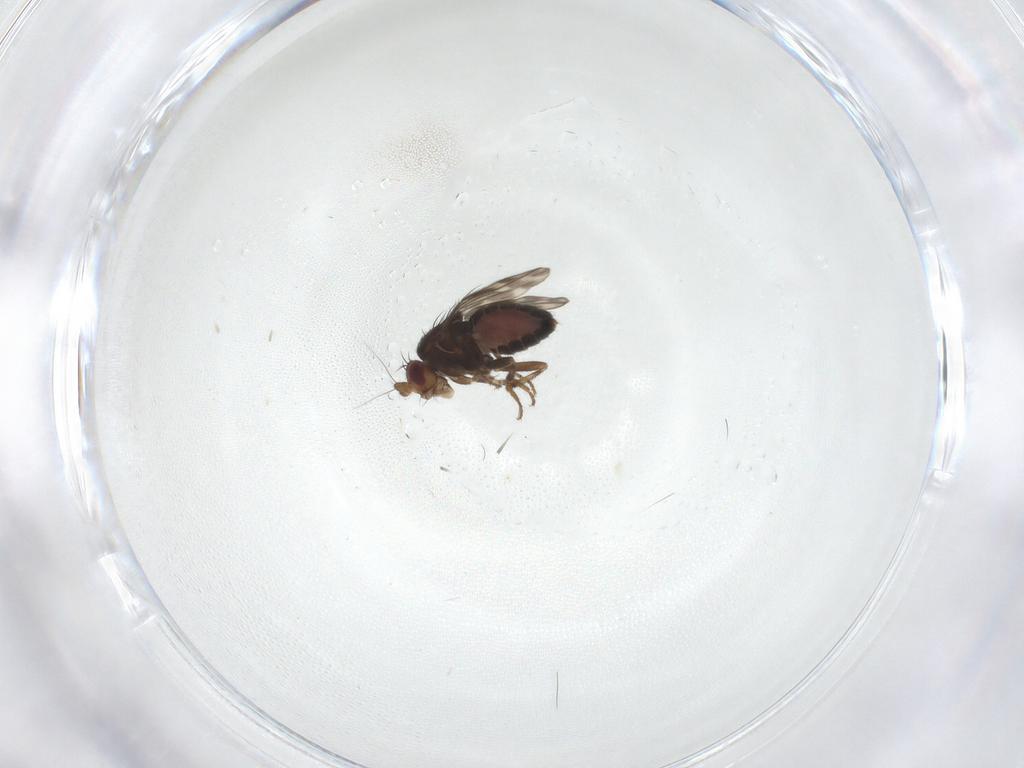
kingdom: Animalia
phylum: Arthropoda
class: Insecta
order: Diptera
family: Sphaeroceridae
